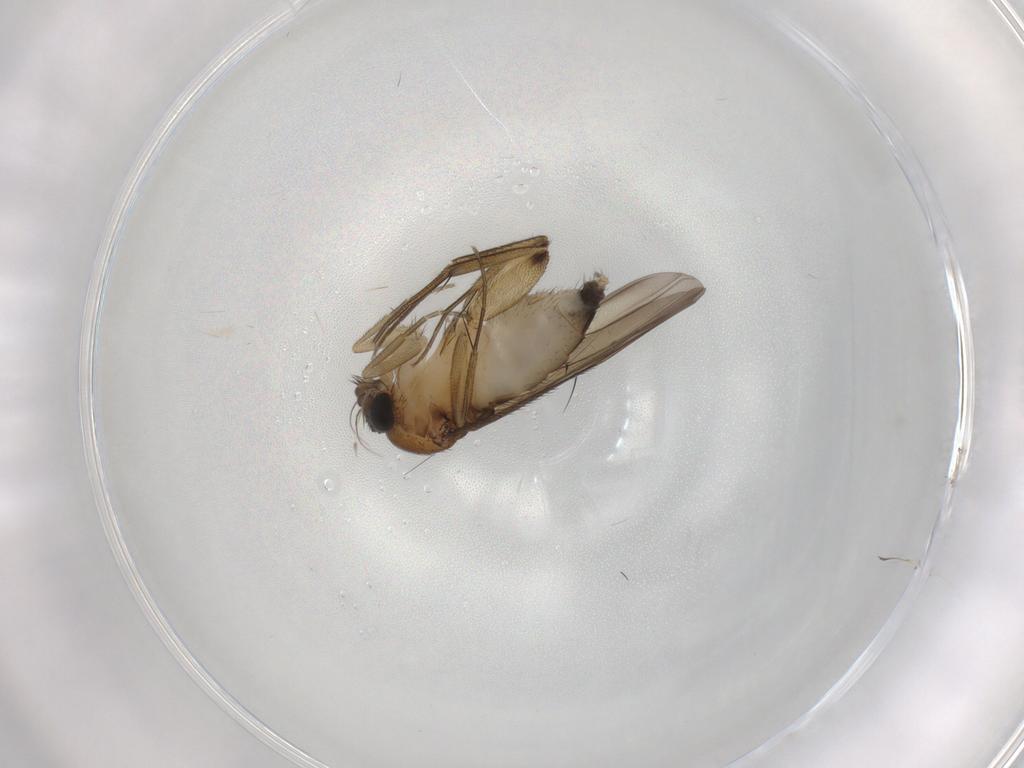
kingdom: Animalia
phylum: Arthropoda
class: Insecta
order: Diptera
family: Phoridae
